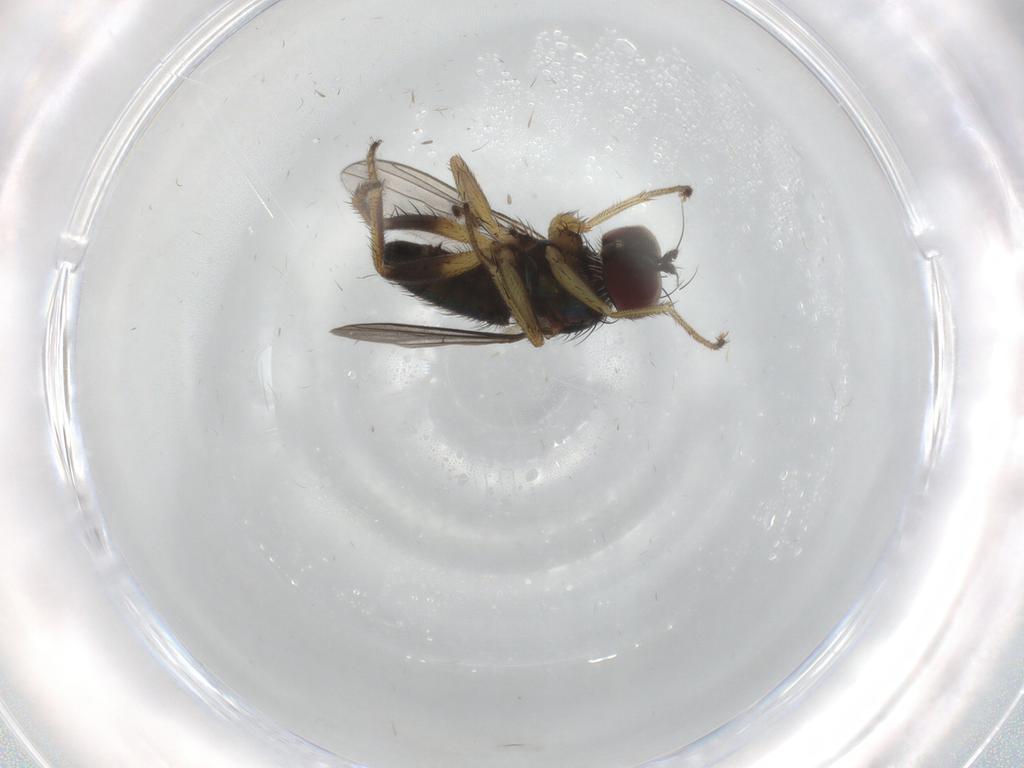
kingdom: Animalia
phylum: Arthropoda
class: Insecta
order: Diptera
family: Dolichopodidae
